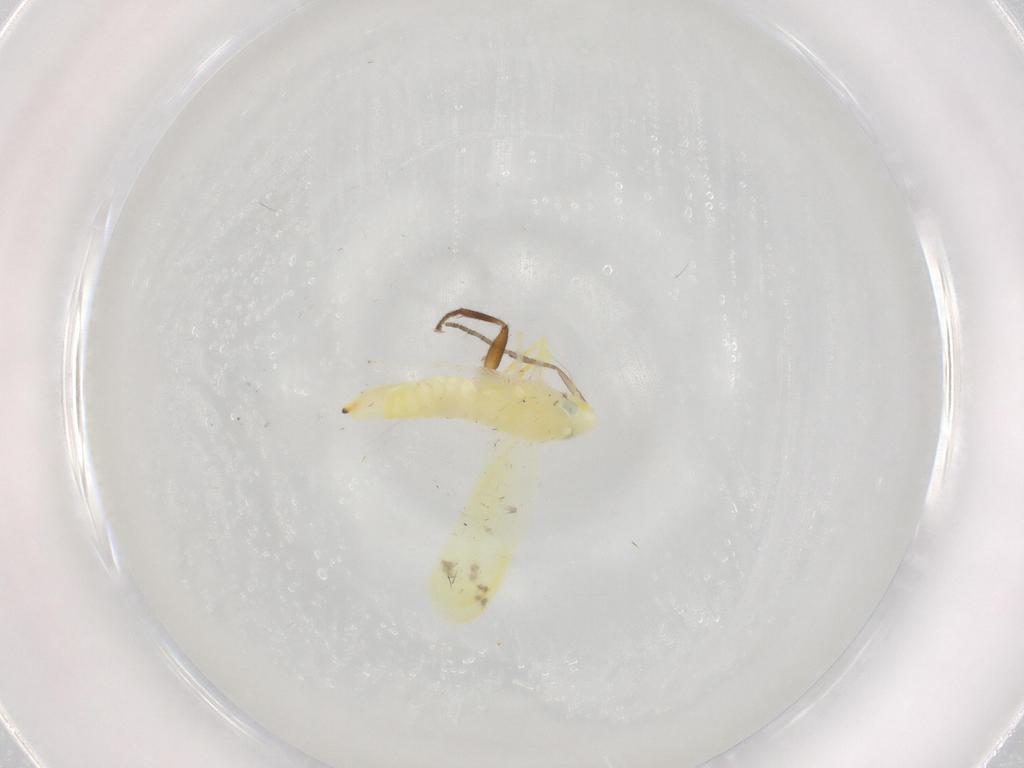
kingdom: Animalia
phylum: Arthropoda
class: Insecta
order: Hemiptera
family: Cicadellidae
